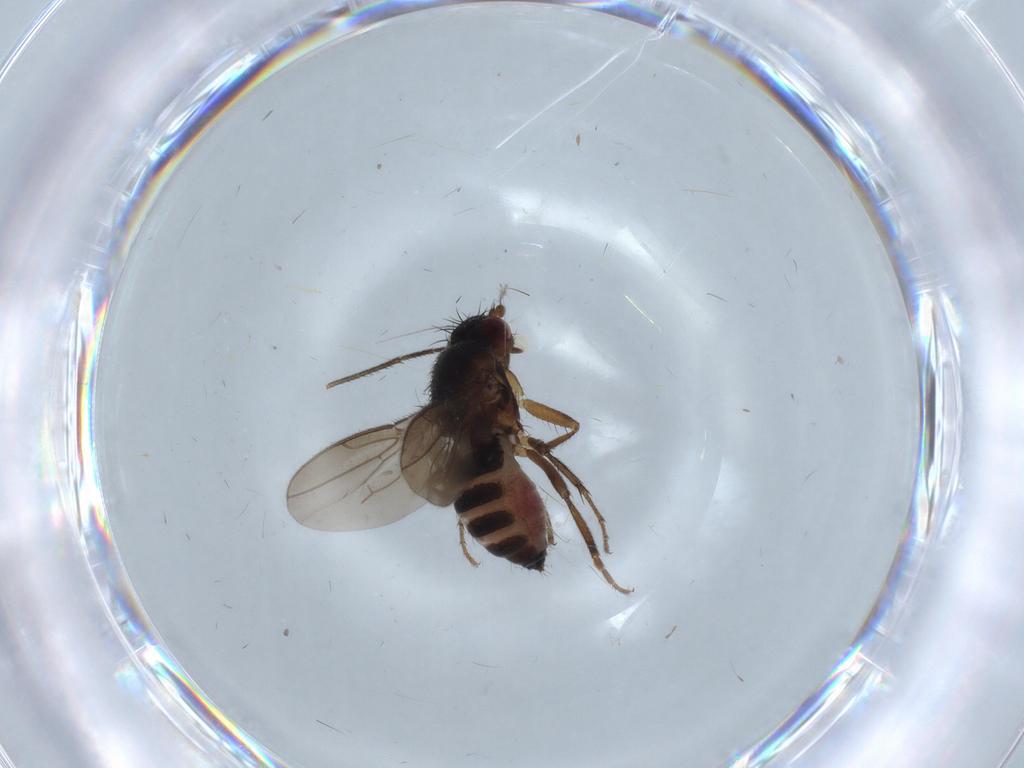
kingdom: Animalia
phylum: Arthropoda
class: Insecta
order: Diptera
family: Mycetophilidae
